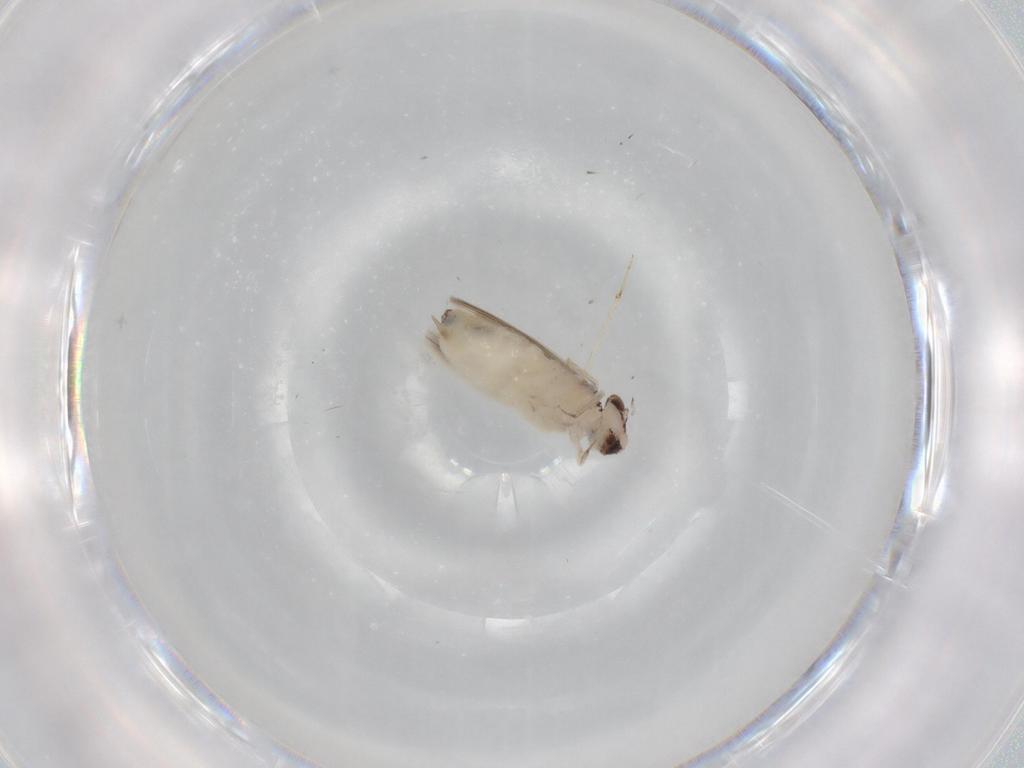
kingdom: Animalia
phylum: Arthropoda
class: Insecta
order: Psocodea
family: Lepidopsocidae
